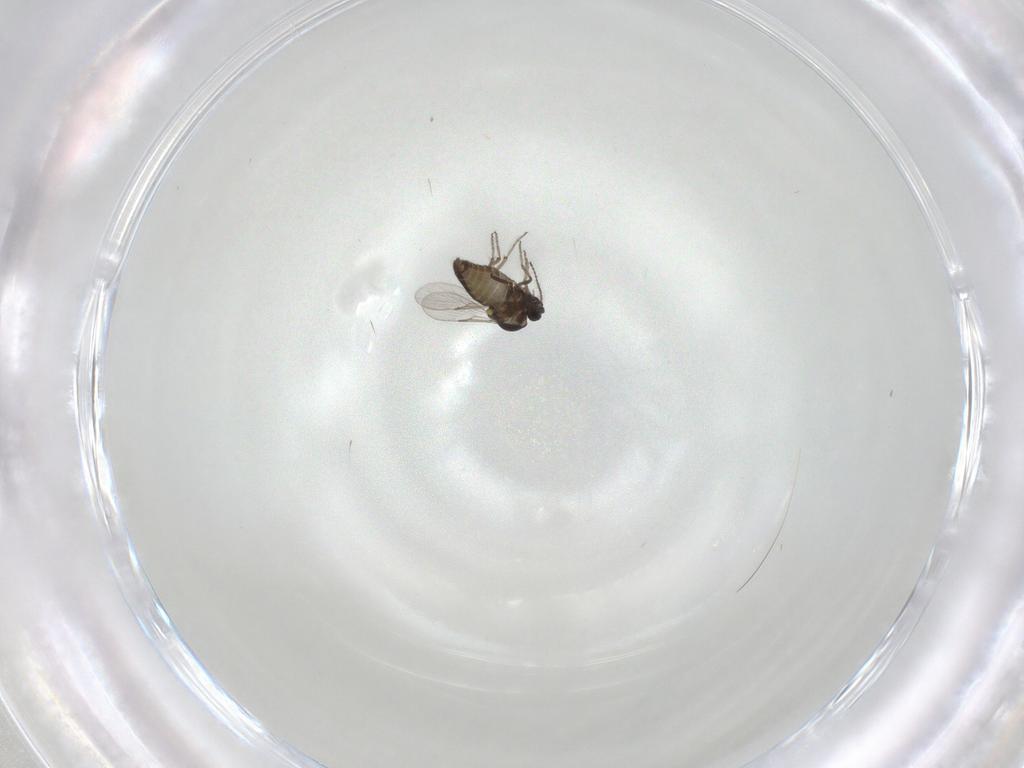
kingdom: Animalia
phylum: Arthropoda
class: Insecta
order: Diptera
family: Ceratopogonidae
